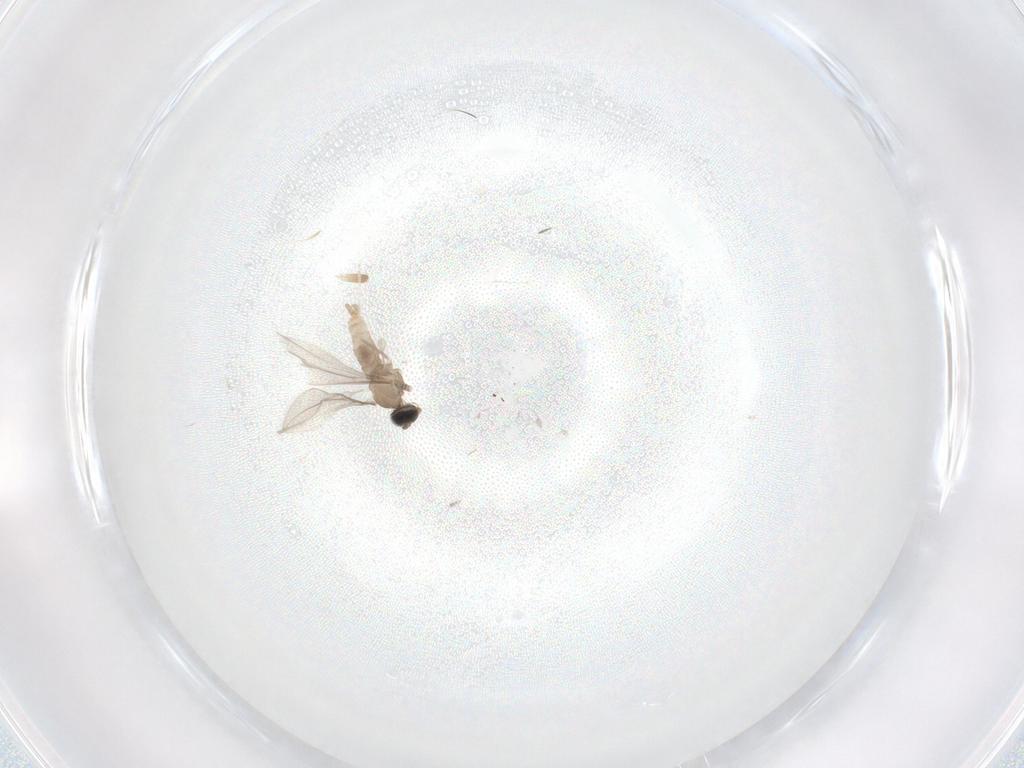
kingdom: Animalia
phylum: Arthropoda
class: Insecta
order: Diptera
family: Cecidomyiidae
